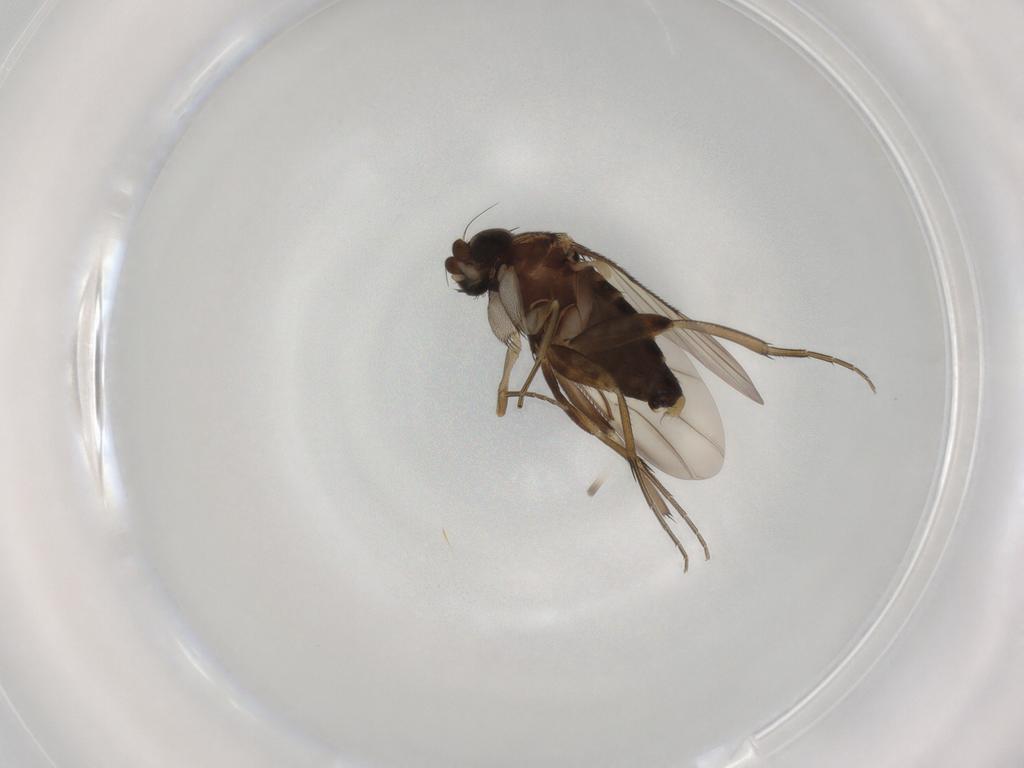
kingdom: Animalia
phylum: Arthropoda
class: Insecta
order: Diptera
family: Phoridae
